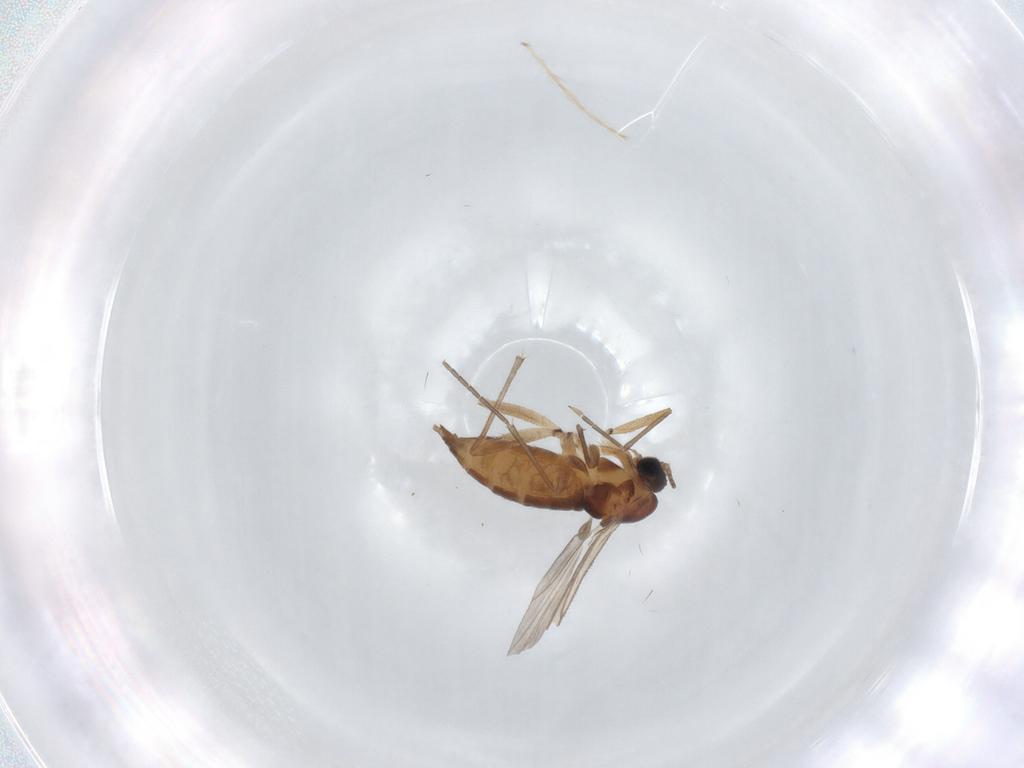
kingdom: Animalia
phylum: Arthropoda
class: Insecta
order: Diptera
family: Sciaridae
